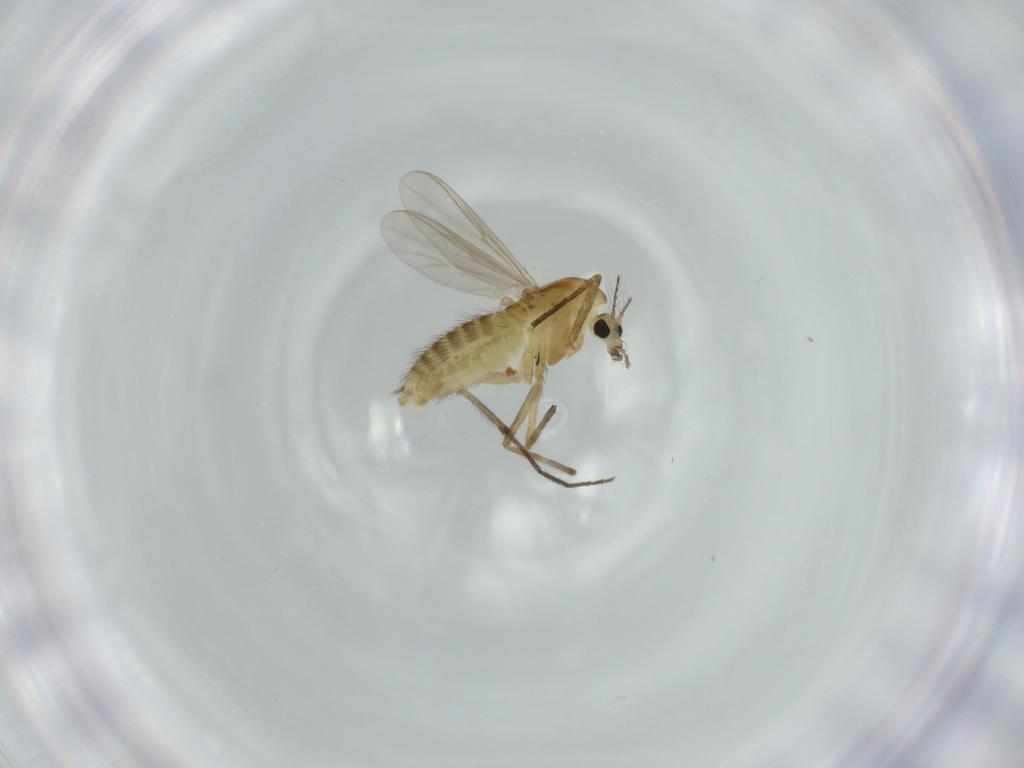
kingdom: Animalia
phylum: Arthropoda
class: Insecta
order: Diptera
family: Chironomidae
